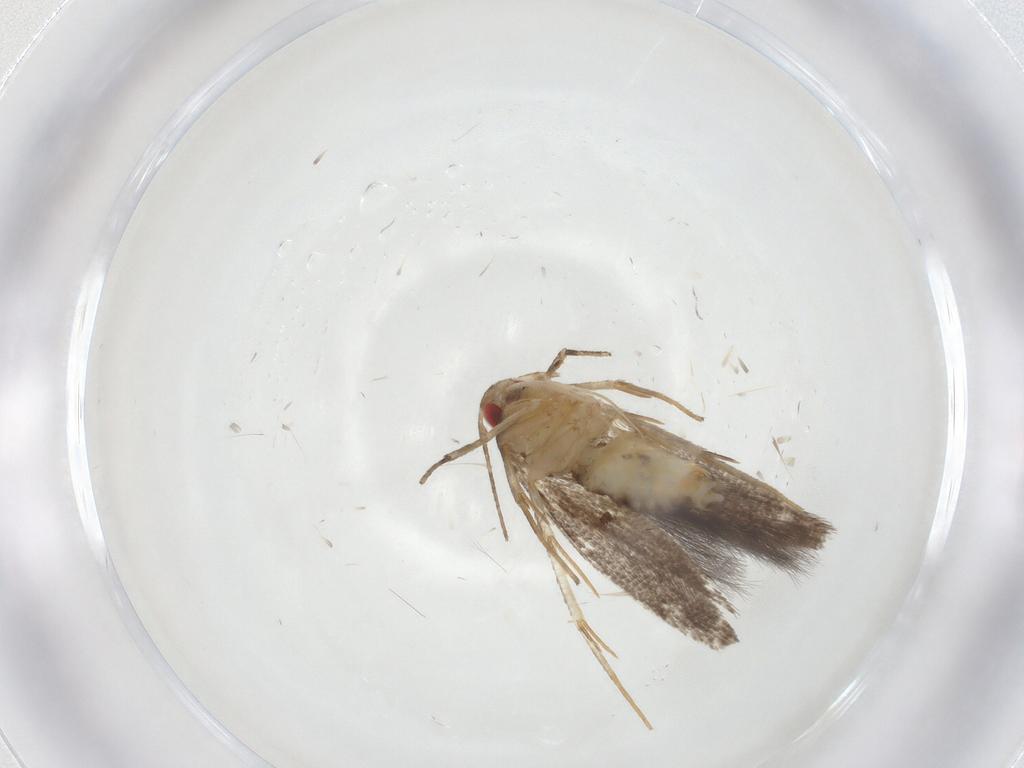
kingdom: Animalia
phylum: Arthropoda
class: Insecta
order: Lepidoptera
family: Cosmopterigidae
